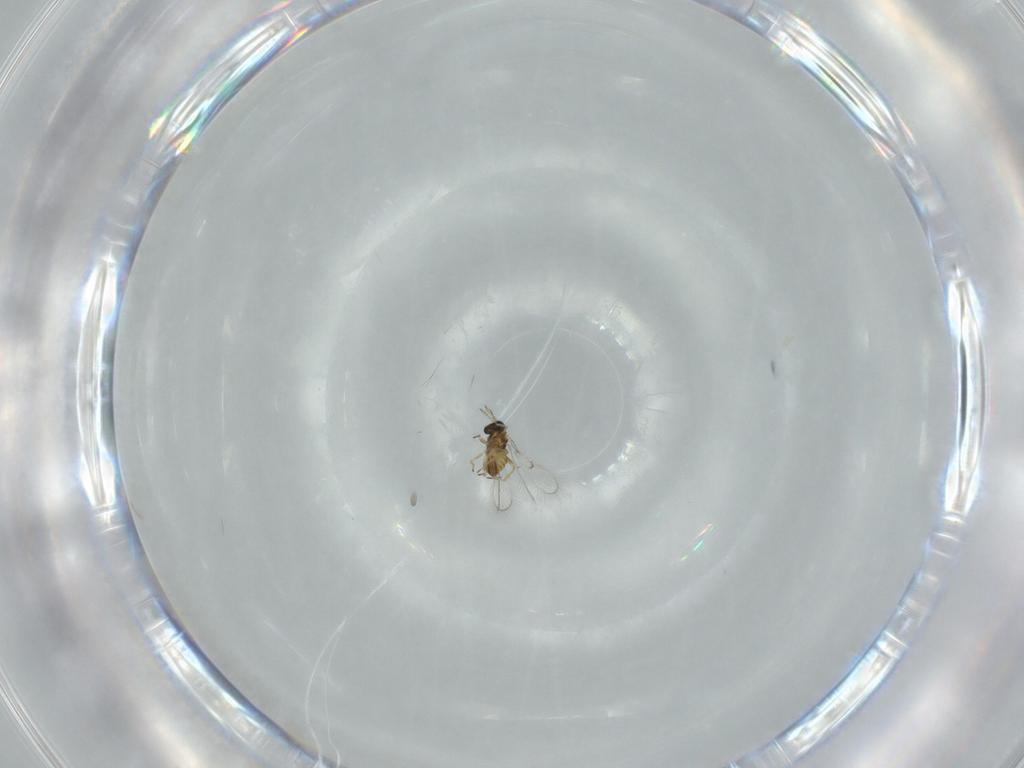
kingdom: Animalia
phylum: Arthropoda
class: Insecta
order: Hymenoptera
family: Trichogrammatidae
